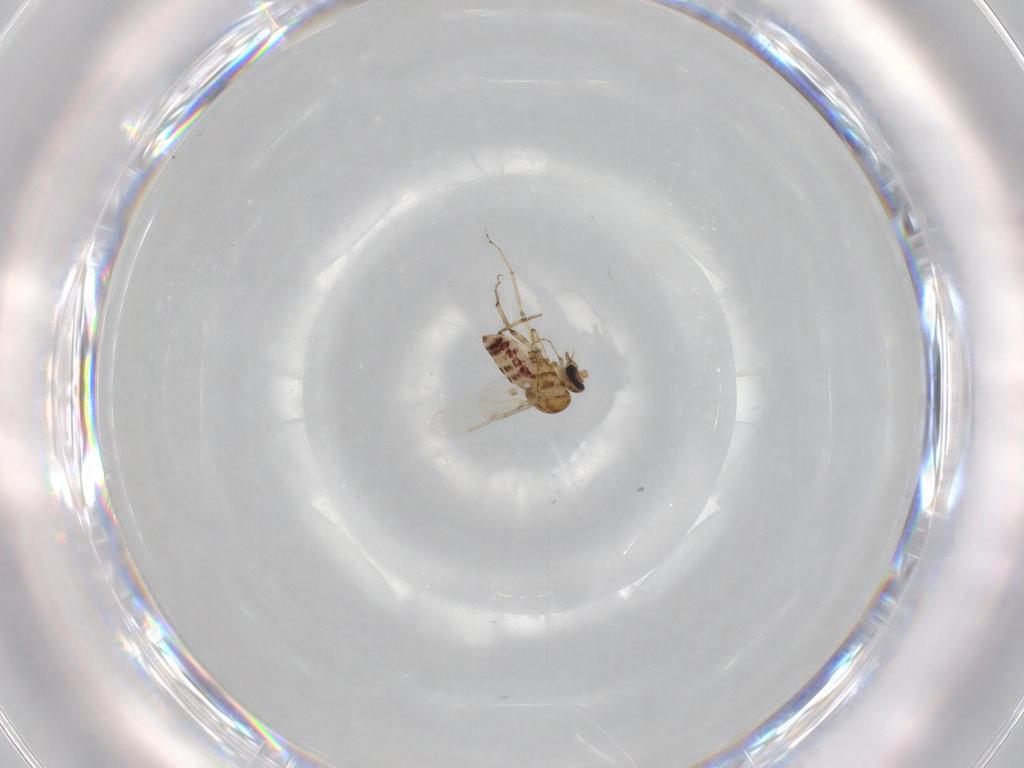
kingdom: Animalia
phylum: Arthropoda
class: Insecta
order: Diptera
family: Ceratopogonidae
